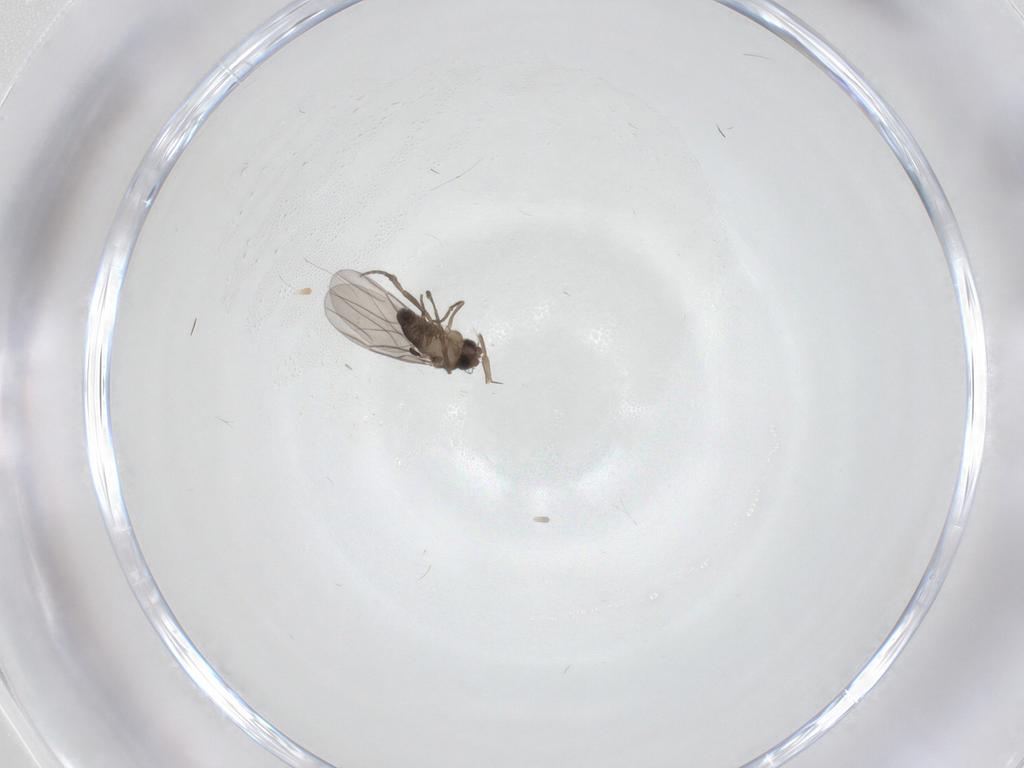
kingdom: Animalia
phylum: Arthropoda
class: Insecta
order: Diptera
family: Phoridae
